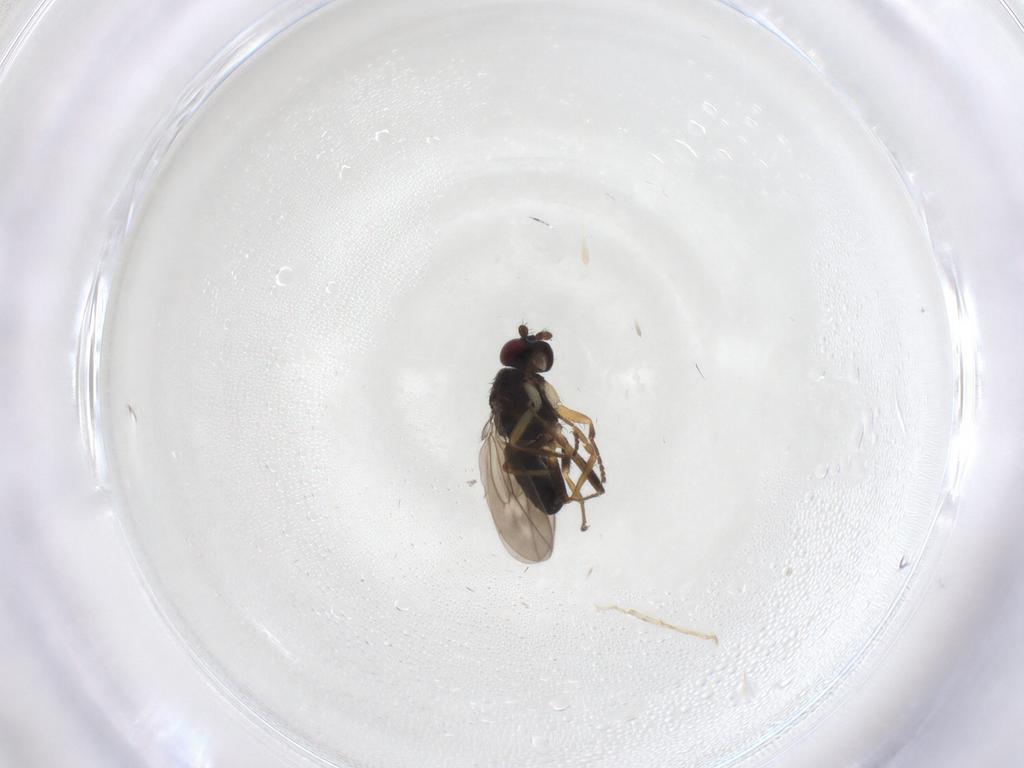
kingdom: Animalia
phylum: Arthropoda
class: Insecta
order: Diptera
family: Sphaeroceridae
